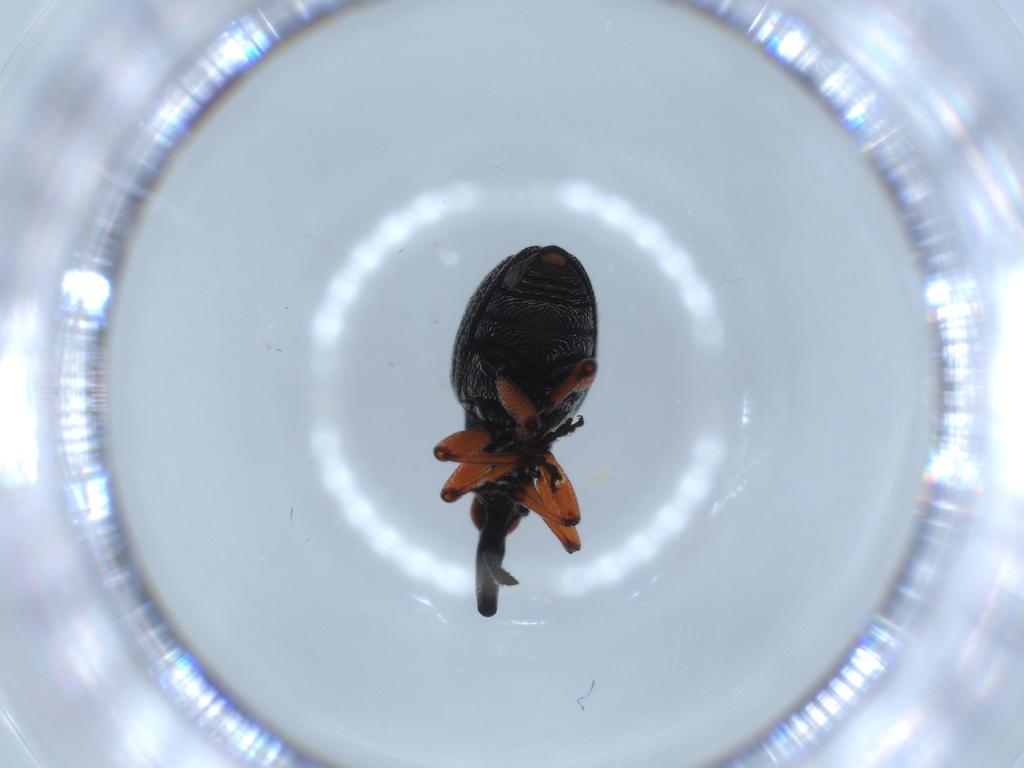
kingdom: Animalia
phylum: Arthropoda
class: Insecta
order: Coleoptera
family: Brentidae
